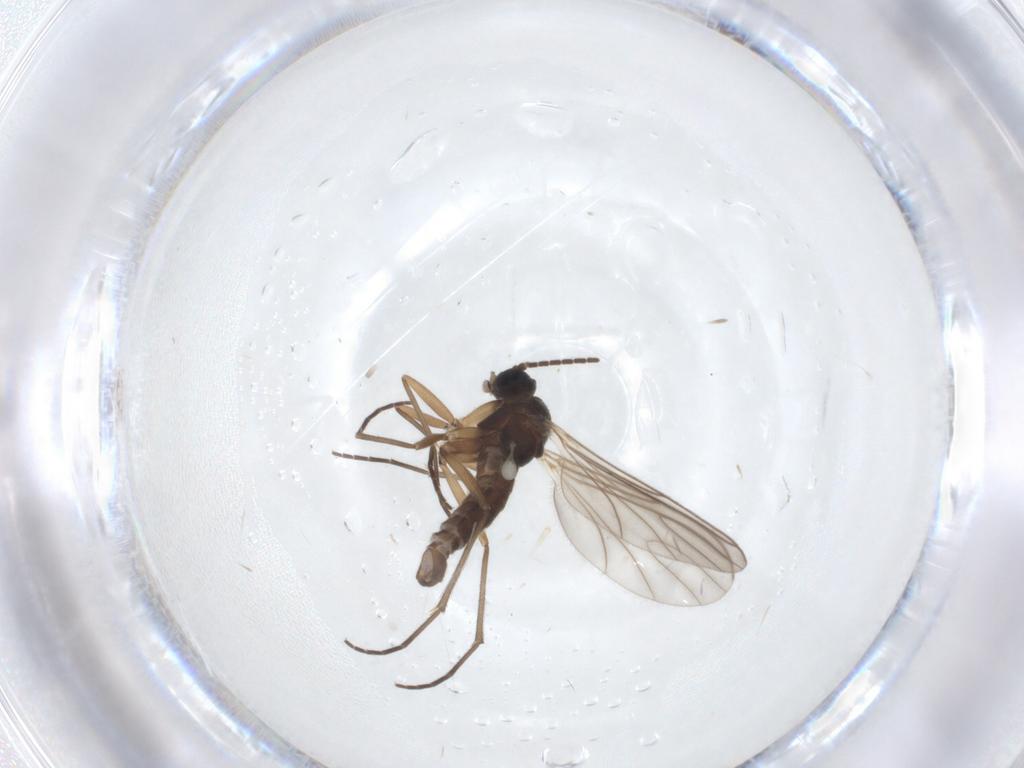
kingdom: Animalia
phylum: Arthropoda
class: Insecta
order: Diptera
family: Sciaridae
